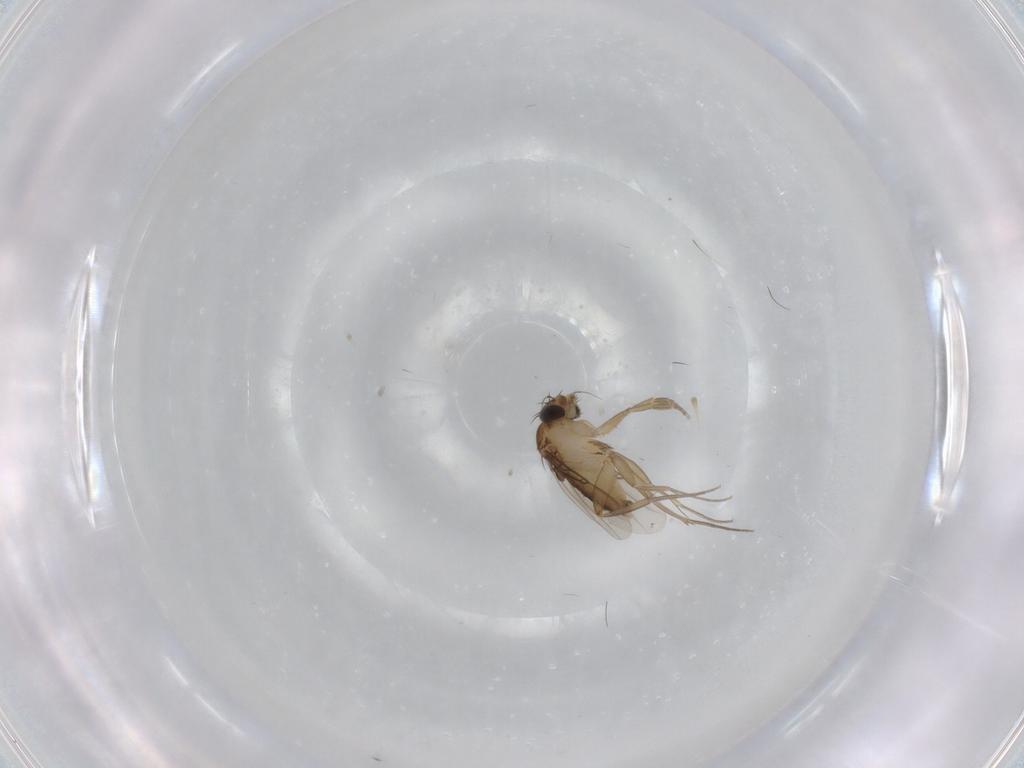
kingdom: Animalia
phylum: Arthropoda
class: Insecta
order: Diptera
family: Phoridae
